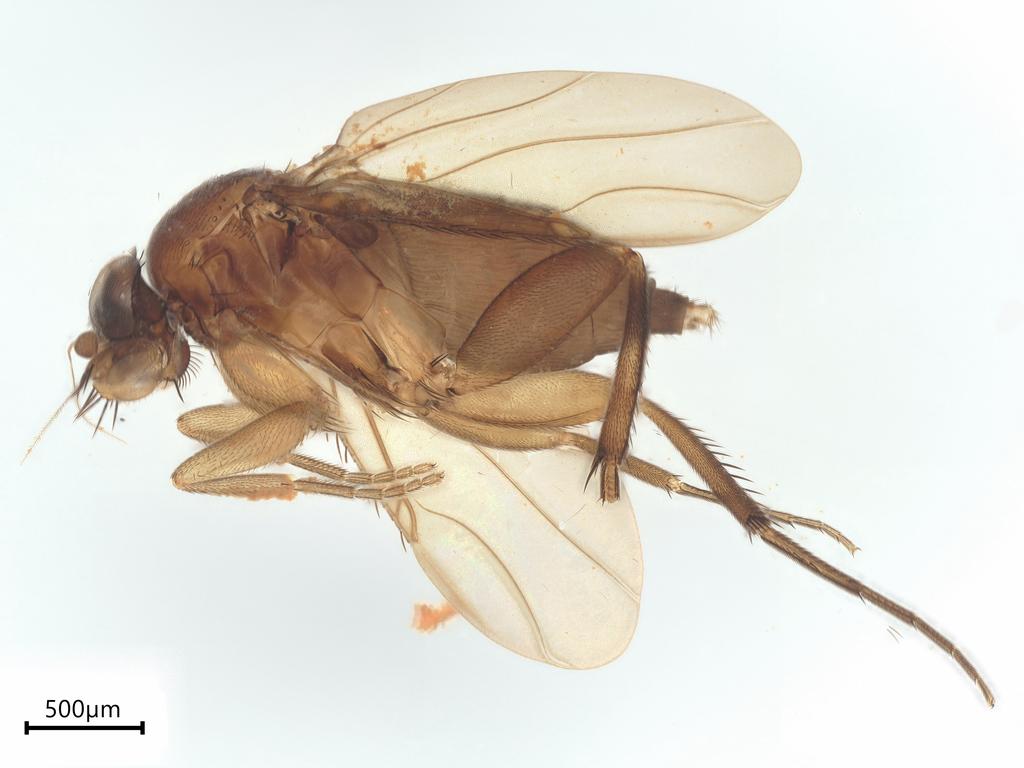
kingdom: Animalia
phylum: Arthropoda
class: Insecta
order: Diptera
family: Phoridae
